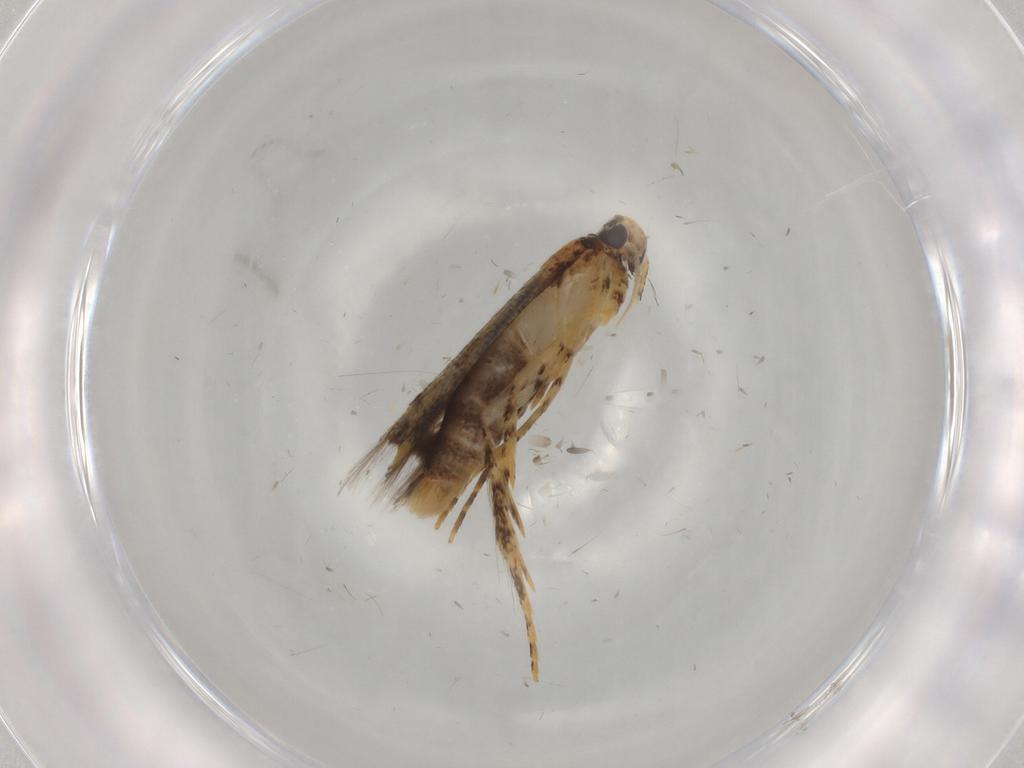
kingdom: Animalia
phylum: Arthropoda
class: Insecta
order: Lepidoptera
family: Gelechiidae
